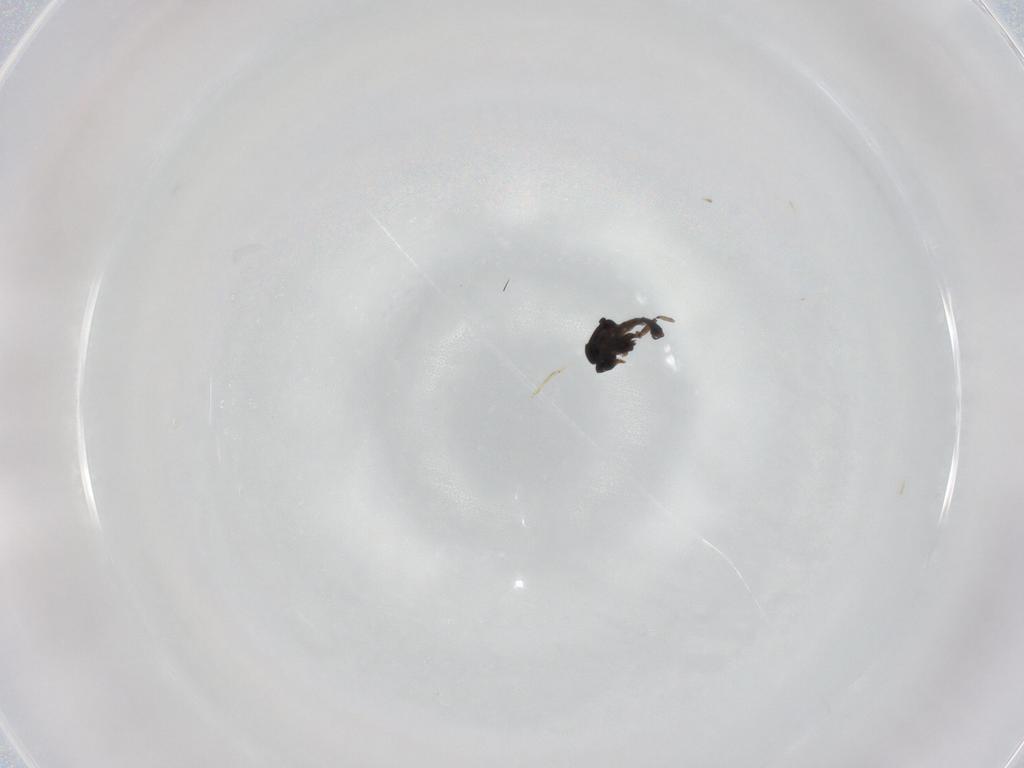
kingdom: Animalia
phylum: Arthropoda
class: Insecta
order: Diptera
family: Ceratopogonidae
